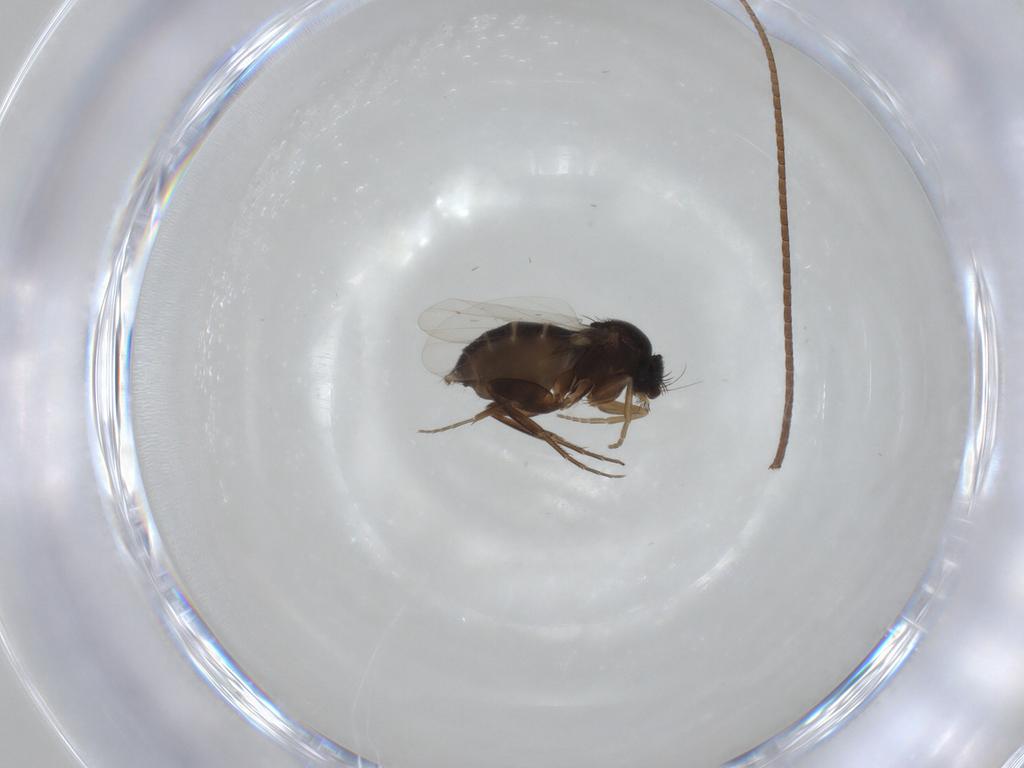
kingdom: Animalia
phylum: Arthropoda
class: Insecta
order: Diptera
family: Phoridae
